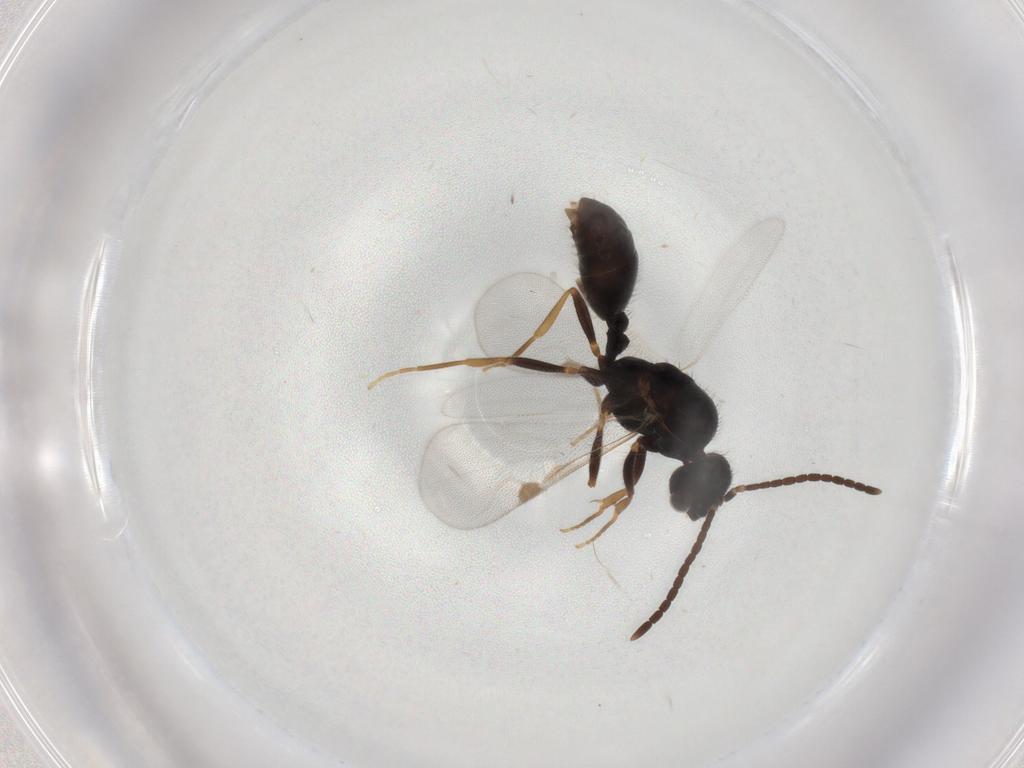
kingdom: Animalia
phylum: Arthropoda
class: Insecta
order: Hymenoptera
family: Formicidae
